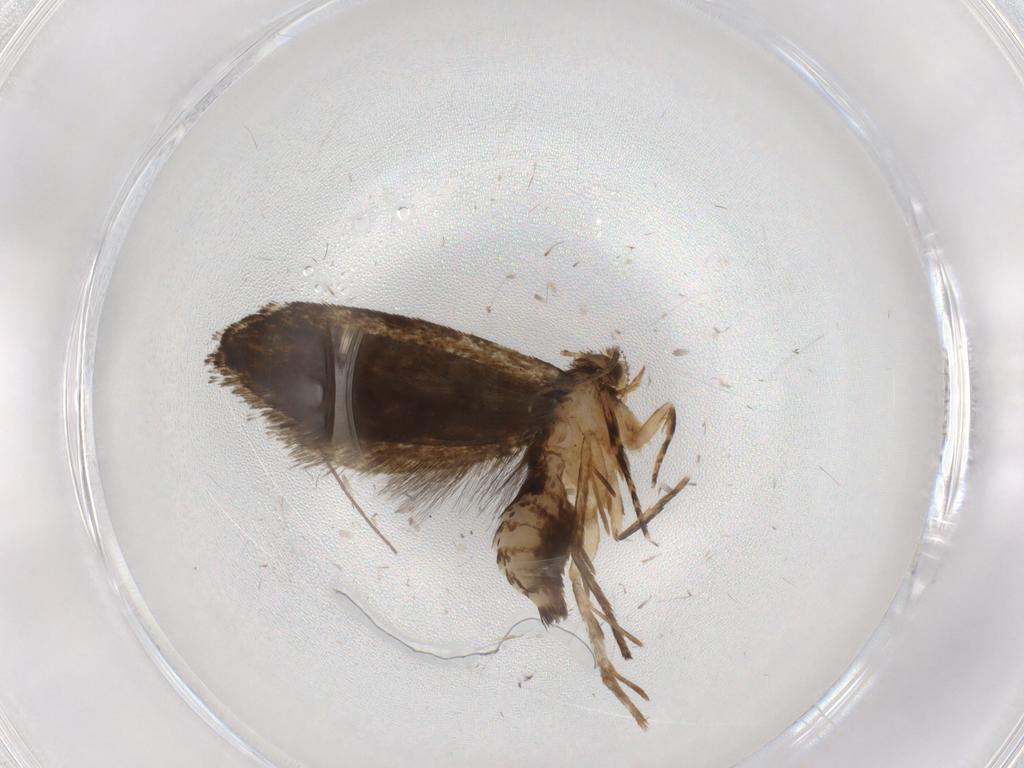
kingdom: Animalia
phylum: Arthropoda
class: Insecta
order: Lepidoptera
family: Crambidae
